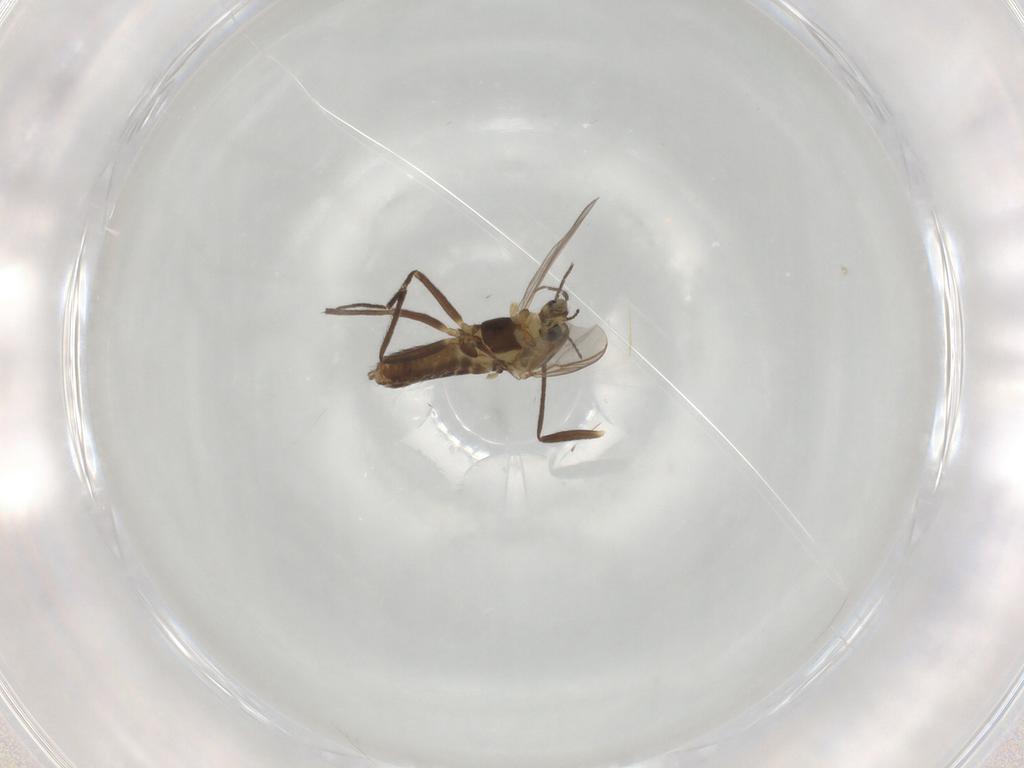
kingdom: Animalia
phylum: Arthropoda
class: Insecta
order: Diptera
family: Chironomidae
